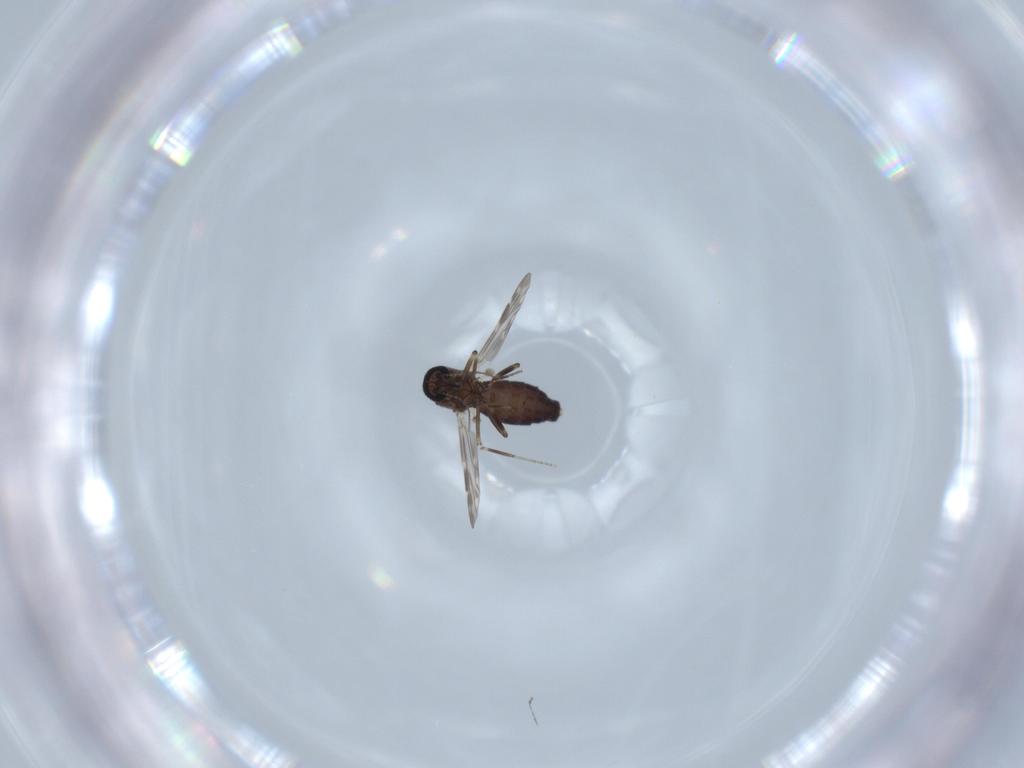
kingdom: Animalia
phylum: Arthropoda
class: Insecta
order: Diptera
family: Ceratopogonidae
